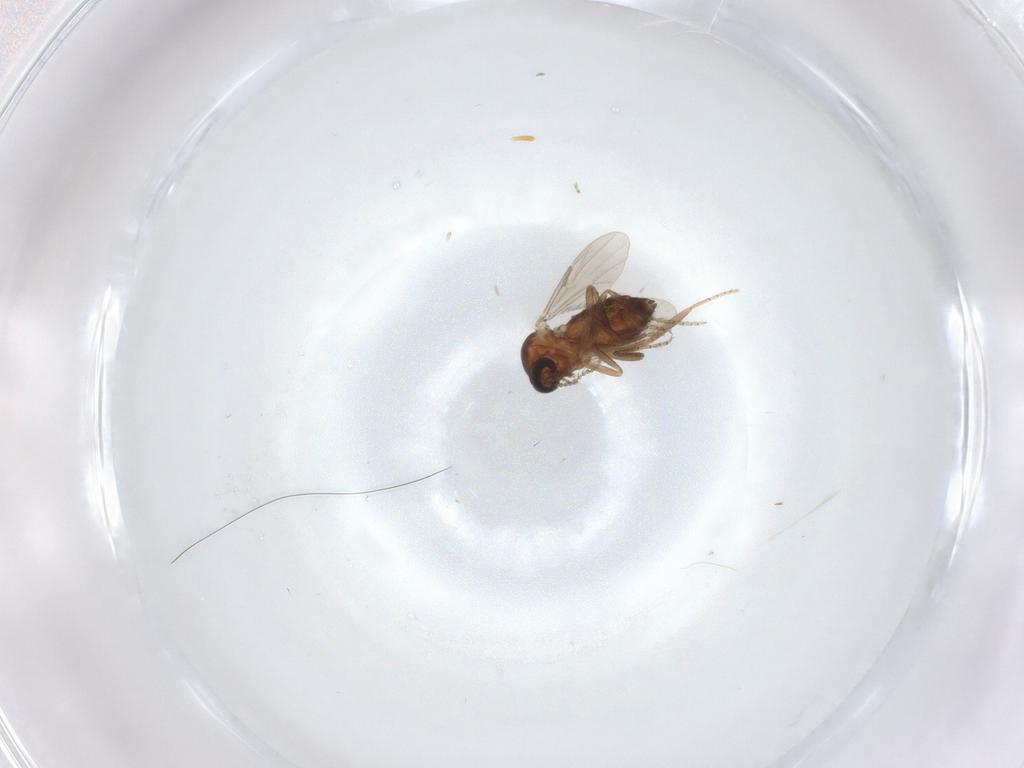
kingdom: Animalia
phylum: Arthropoda
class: Insecta
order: Diptera
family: Ceratopogonidae
